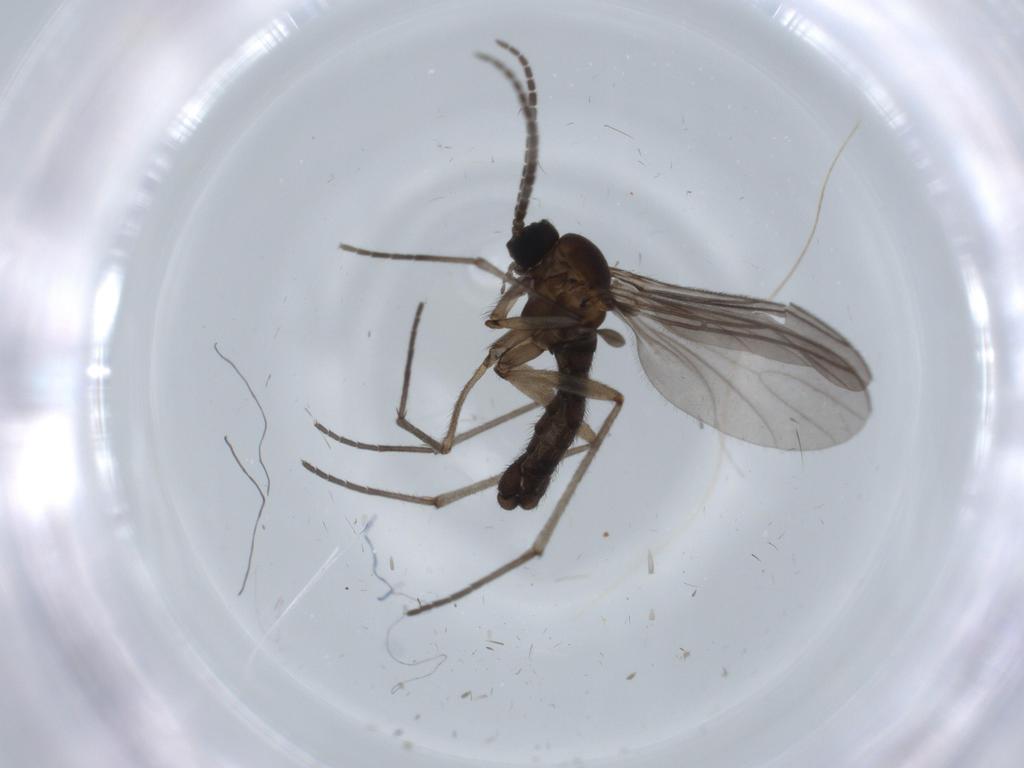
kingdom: Animalia
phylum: Arthropoda
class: Insecta
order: Diptera
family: Sciaridae
